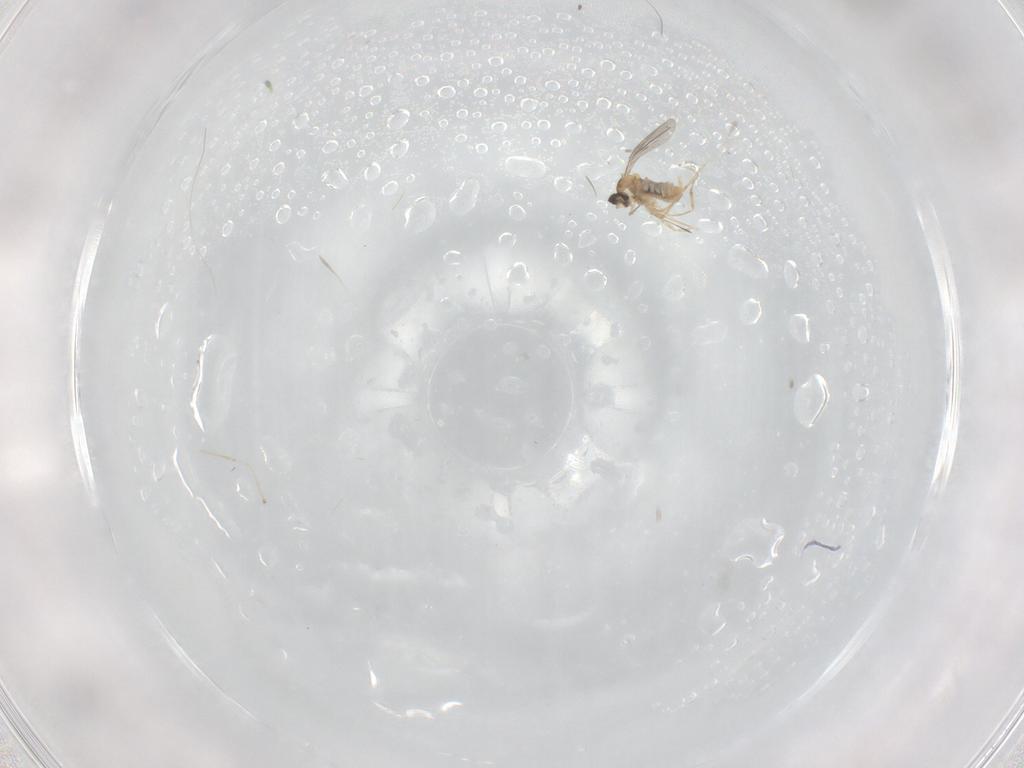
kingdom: Animalia
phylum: Arthropoda
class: Insecta
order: Diptera
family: Cecidomyiidae
